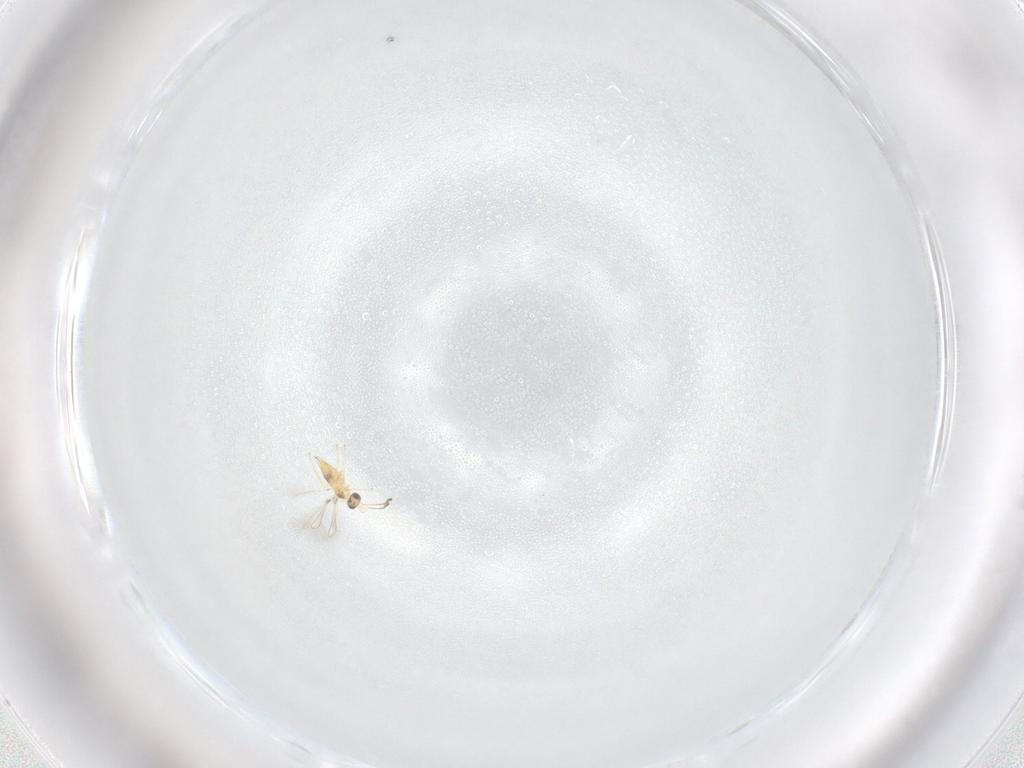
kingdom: Animalia
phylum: Arthropoda
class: Insecta
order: Hymenoptera
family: Mymaridae
